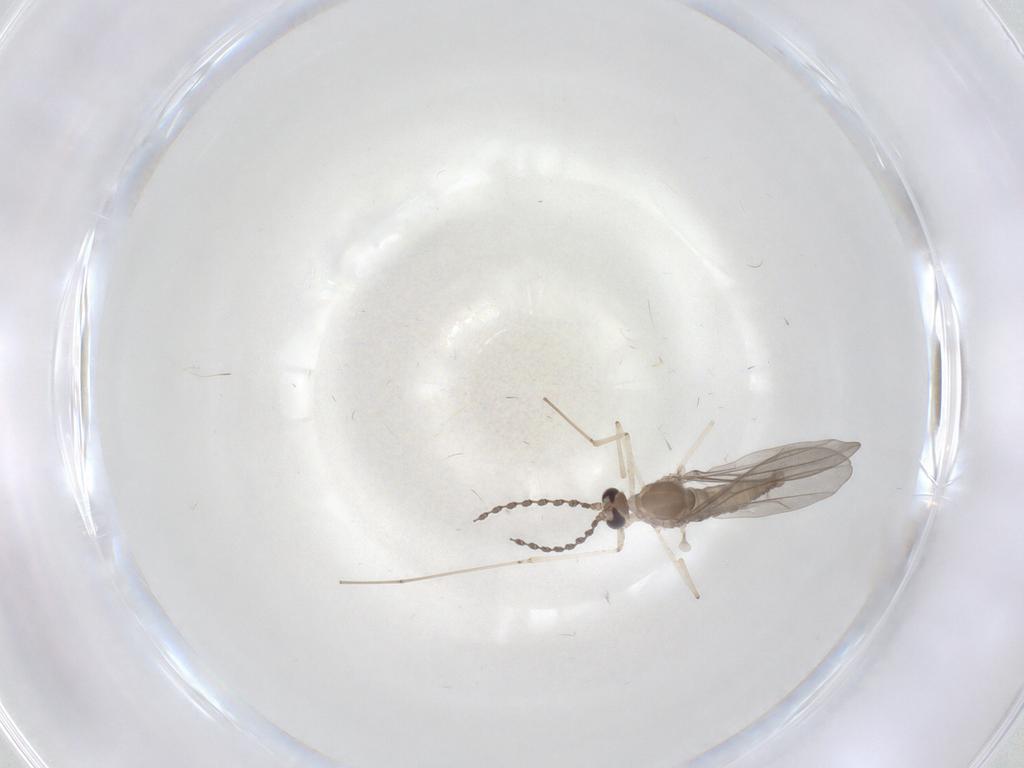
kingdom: Animalia
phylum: Arthropoda
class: Insecta
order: Diptera
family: Cecidomyiidae
